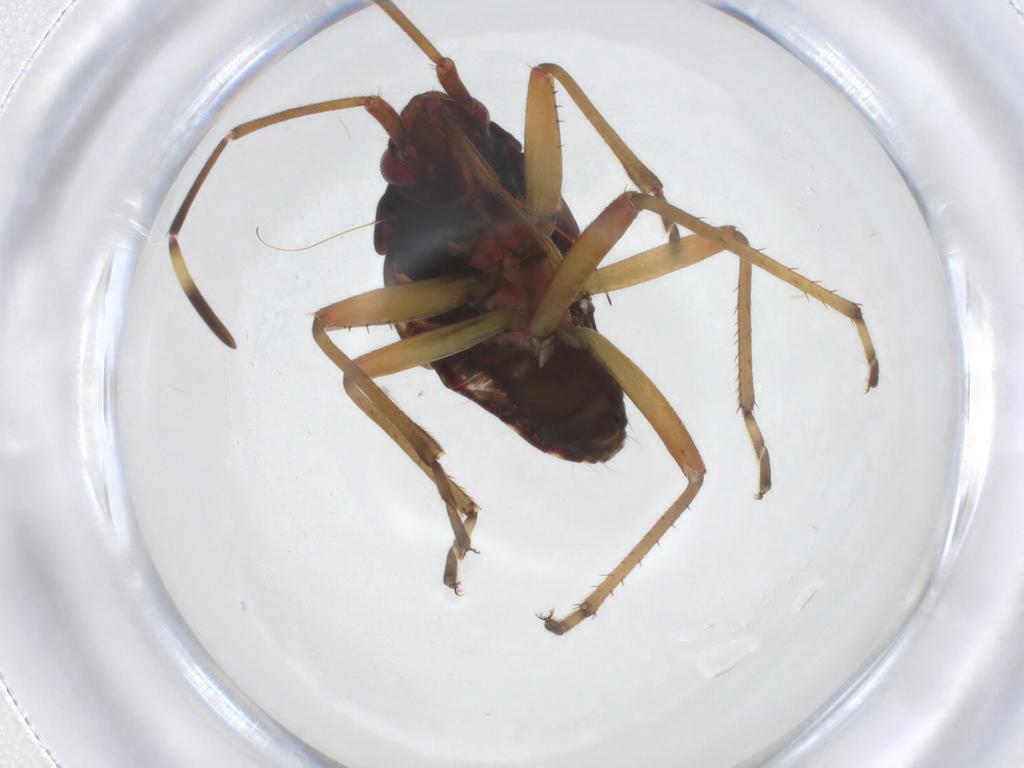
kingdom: Animalia
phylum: Arthropoda
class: Insecta
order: Hemiptera
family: Rhyparochromidae
